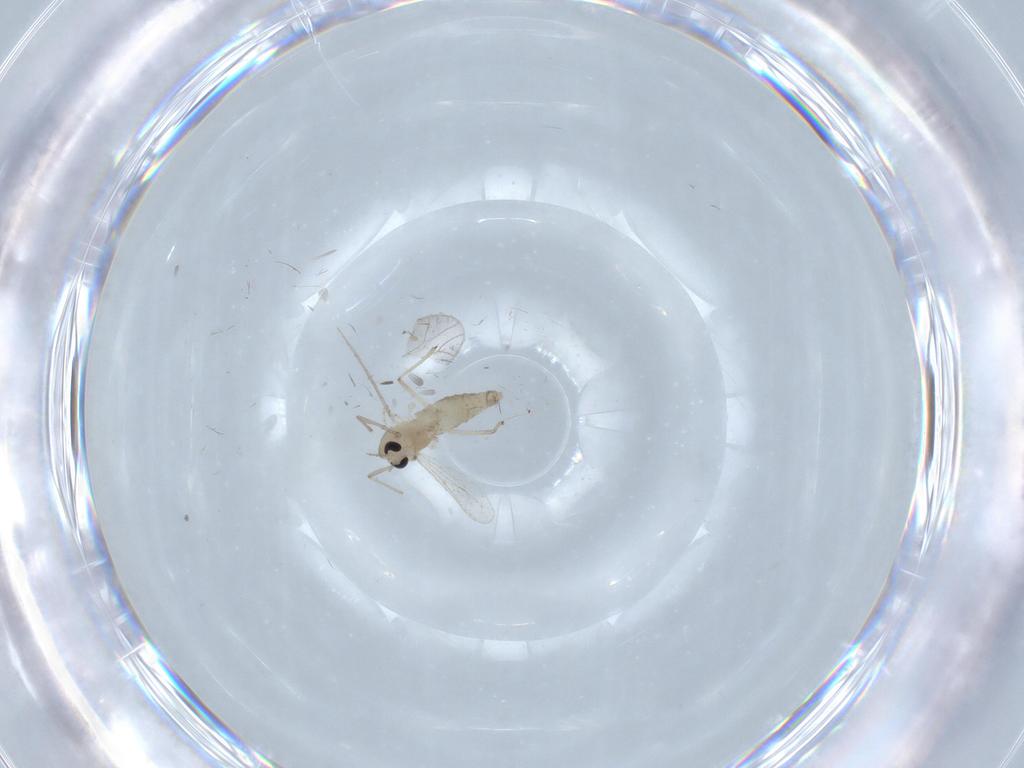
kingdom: Animalia
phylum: Arthropoda
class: Insecta
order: Diptera
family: Chironomidae
